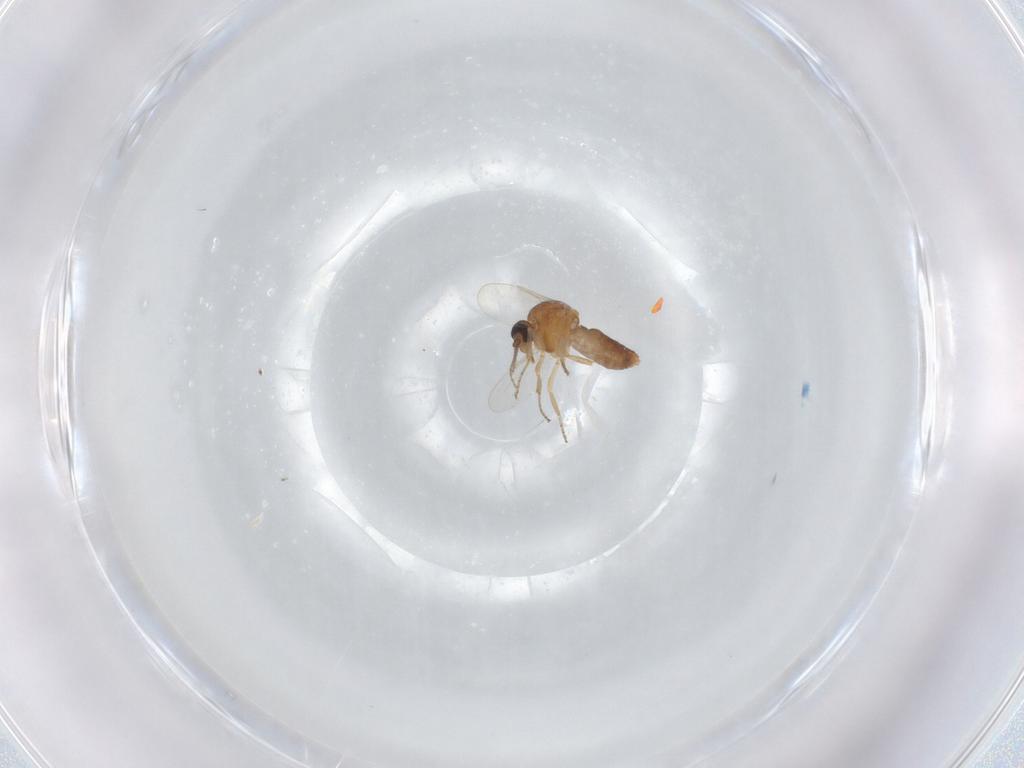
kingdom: Animalia
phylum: Arthropoda
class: Insecta
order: Diptera
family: Ceratopogonidae
